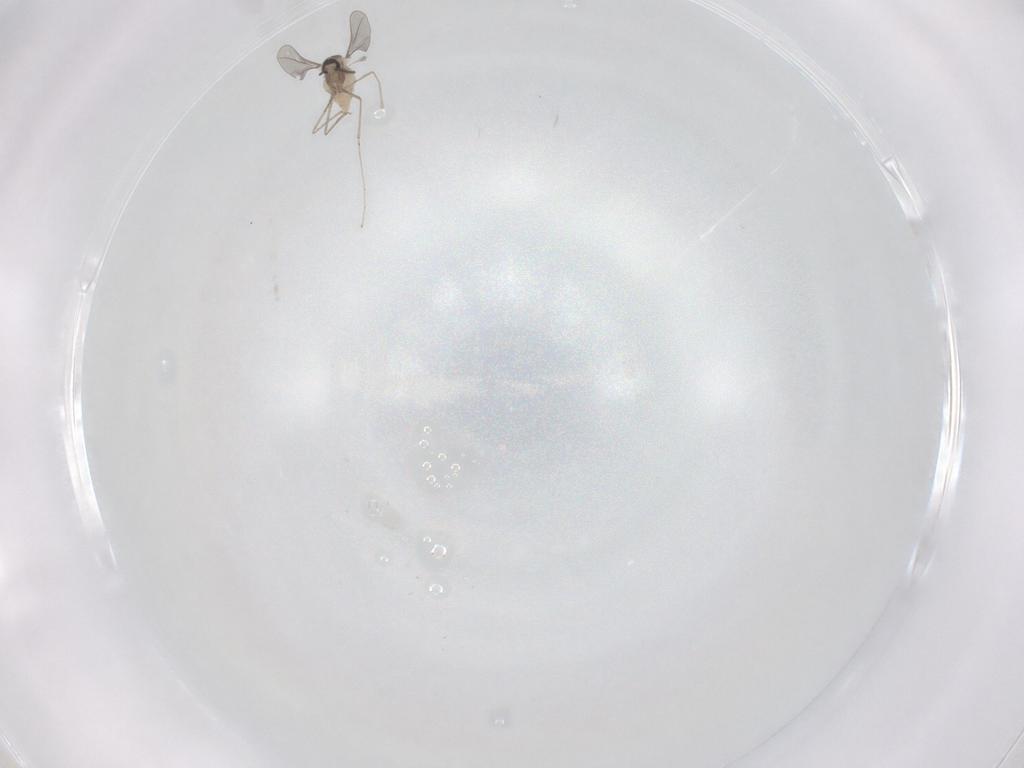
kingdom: Animalia
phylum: Arthropoda
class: Insecta
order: Diptera
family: Cecidomyiidae
